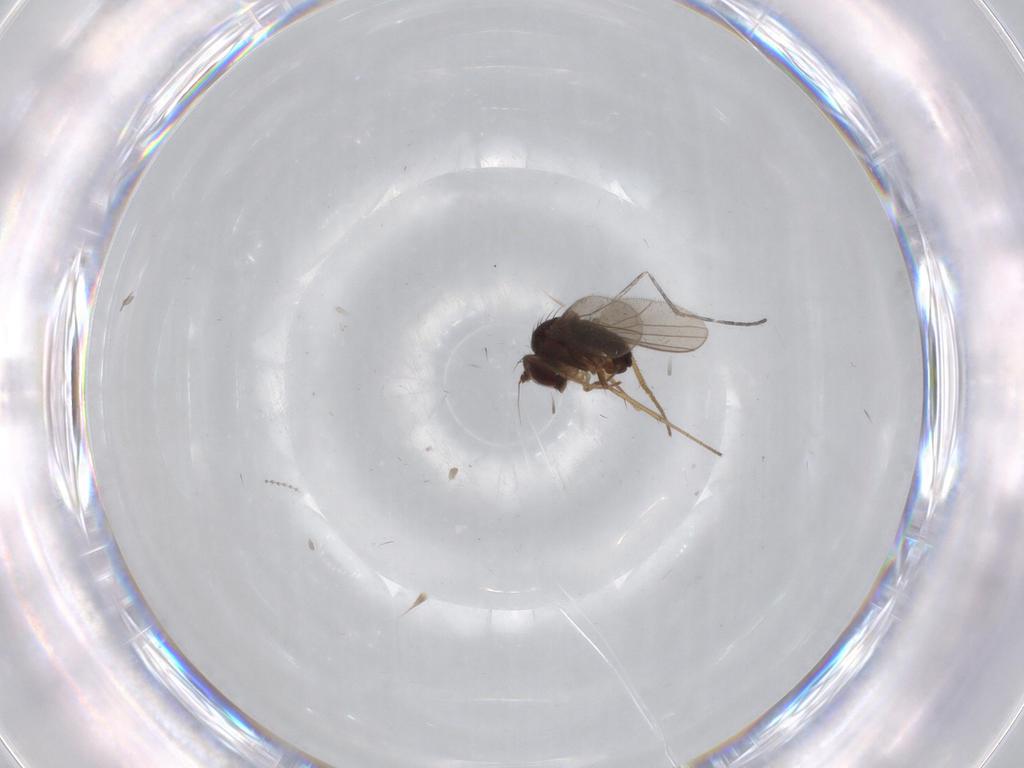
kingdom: Animalia
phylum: Arthropoda
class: Insecta
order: Diptera
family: Dolichopodidae
